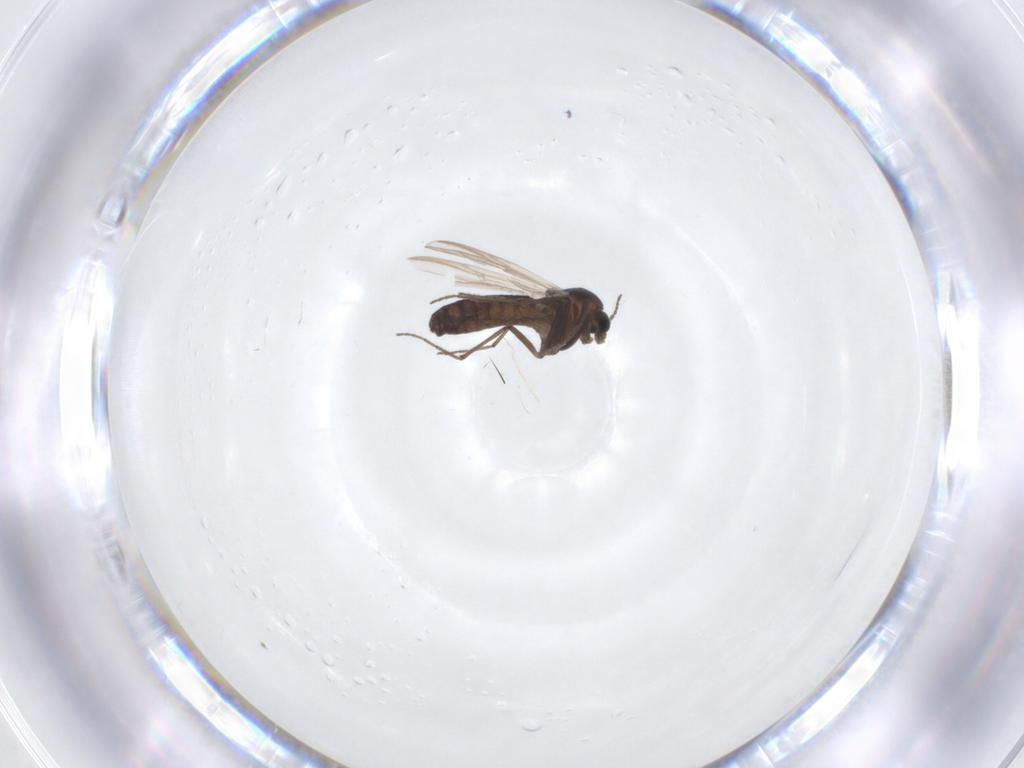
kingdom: Animalia
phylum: Arthropoda
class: Insecta
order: Diptera
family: Chironomidae
